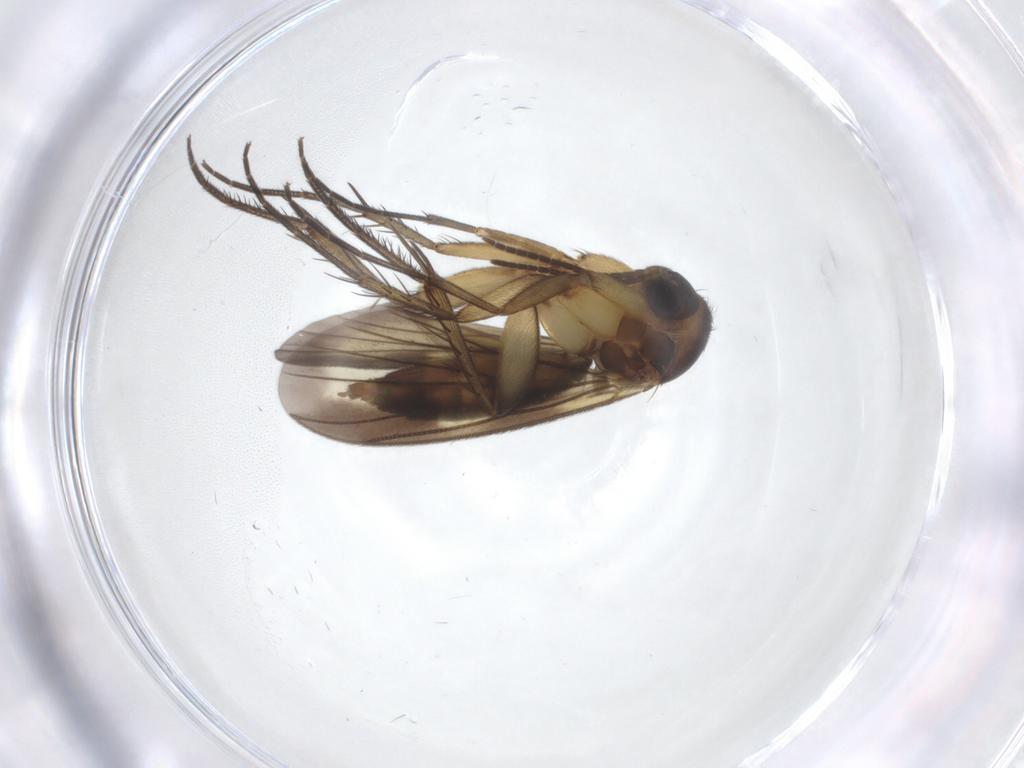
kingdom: Animalia
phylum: Arthropoda
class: Insecta
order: Diptera
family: Mycetophilidae
